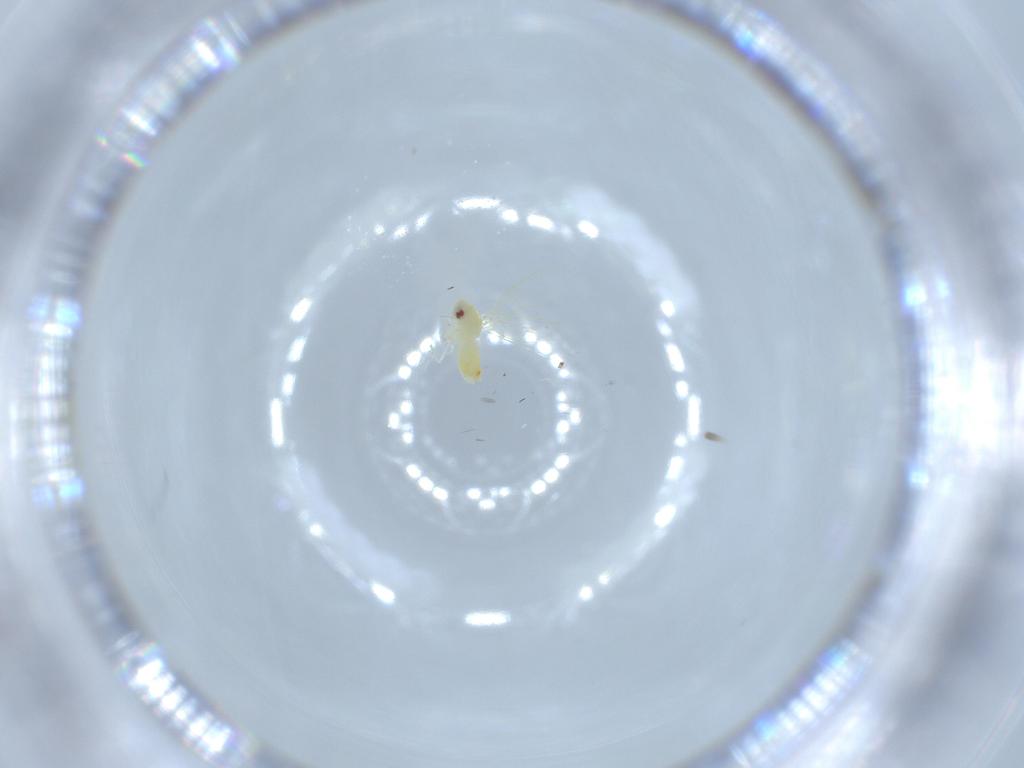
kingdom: Animalia
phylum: Arthropoda
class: Insecta
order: Hemiptera
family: Aleyrodidae
